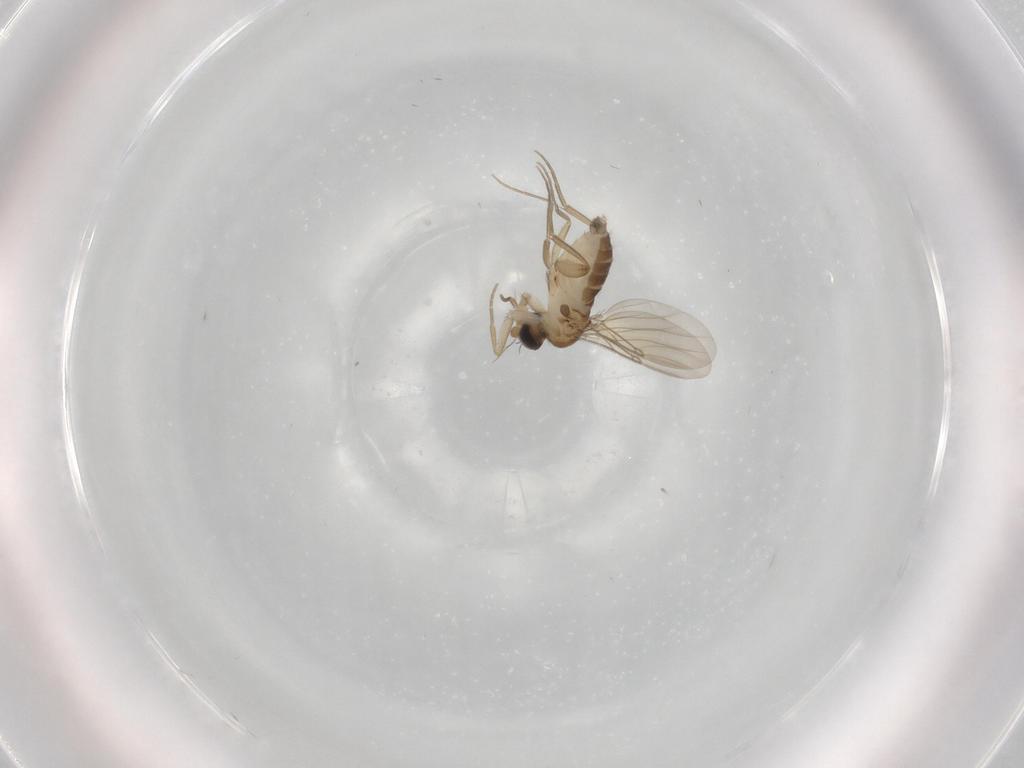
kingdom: Animalia
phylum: Arthropoda
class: Insecta
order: Diptera
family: Phoridae
